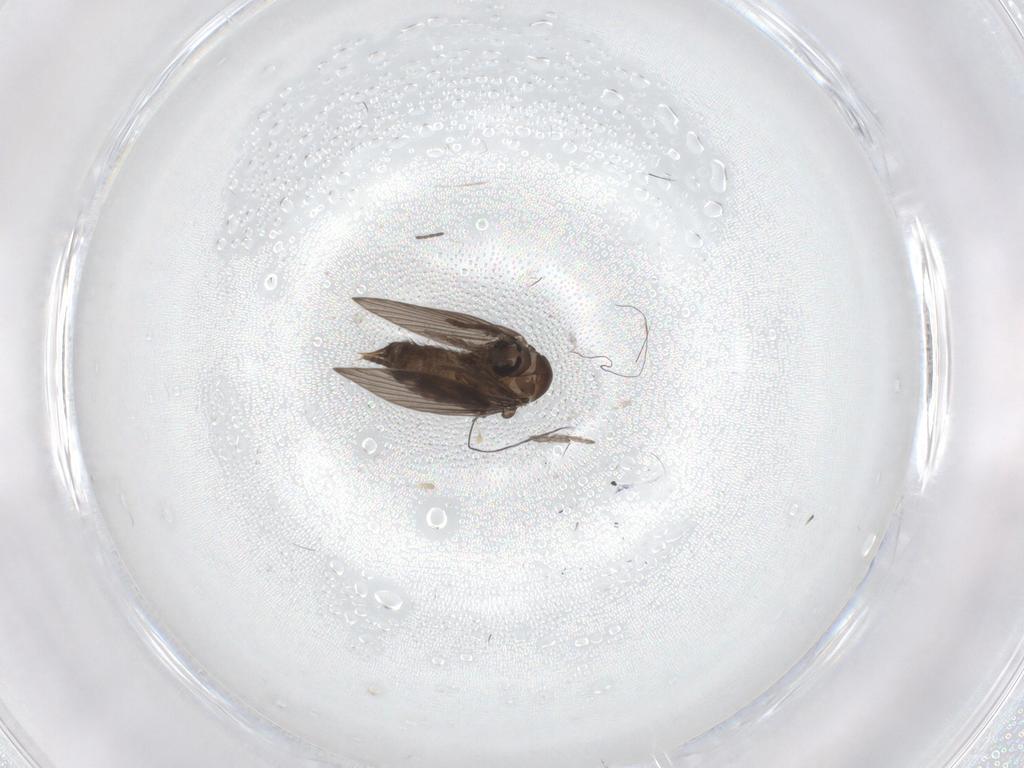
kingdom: Animalia
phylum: Arthropoda
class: Insecta
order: Diptera
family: Psychodidae
